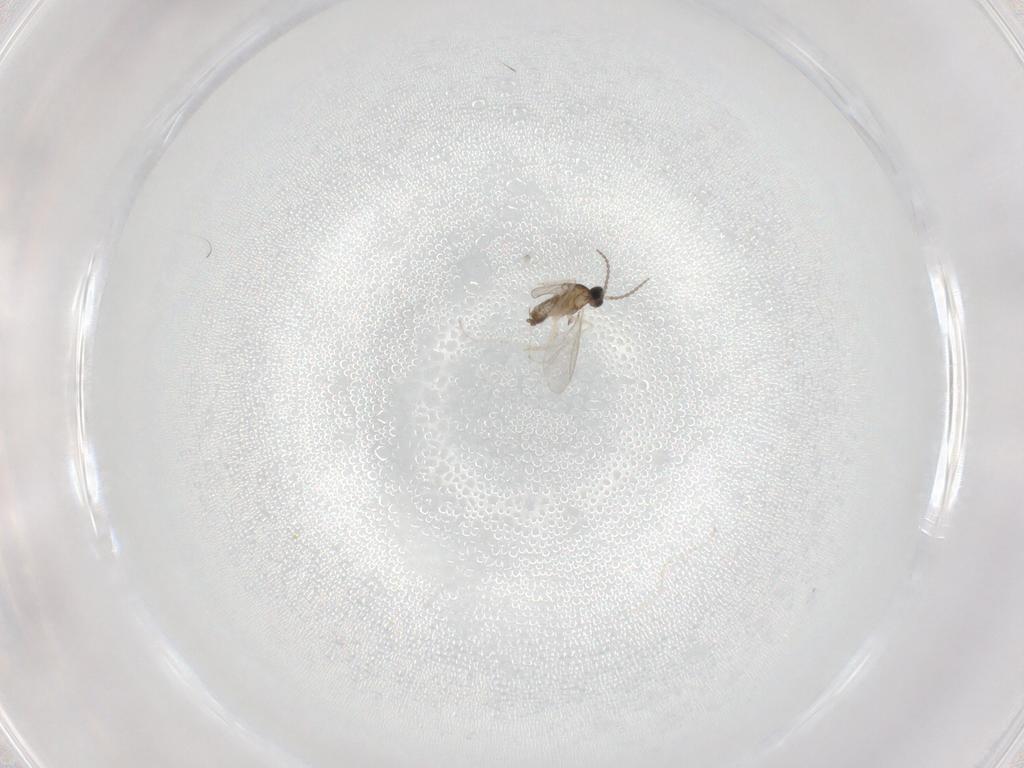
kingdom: Animalia
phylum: Arthropoda
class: Insecta
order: Diptera
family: Cecidomyiidae
